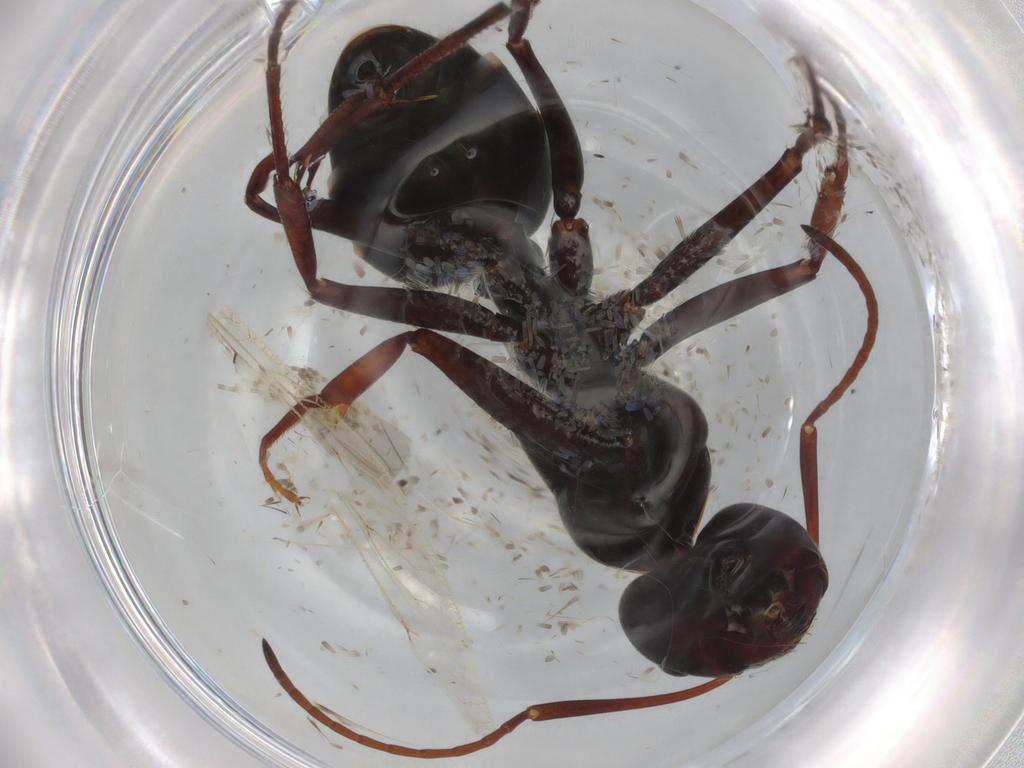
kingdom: Animalia
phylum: Arthropoda
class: Insecta
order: Hymenoptera
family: Formicidae
